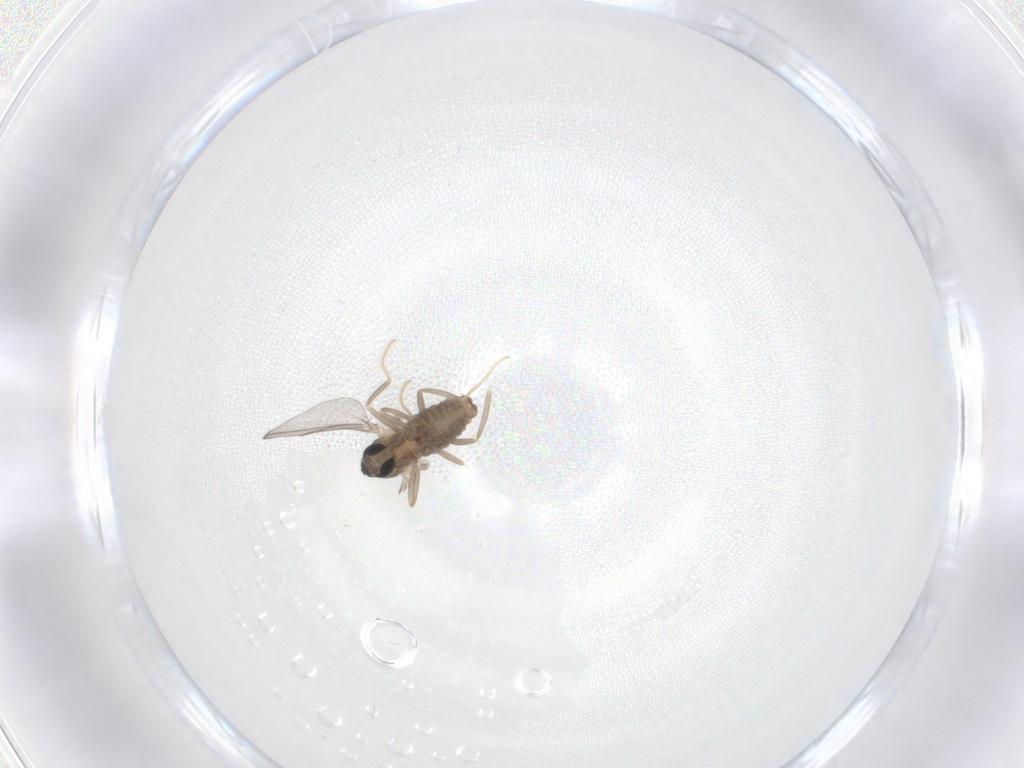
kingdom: Animalia
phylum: Arthropoda
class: Insecta
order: Diptera
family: Cecidomyiidae
